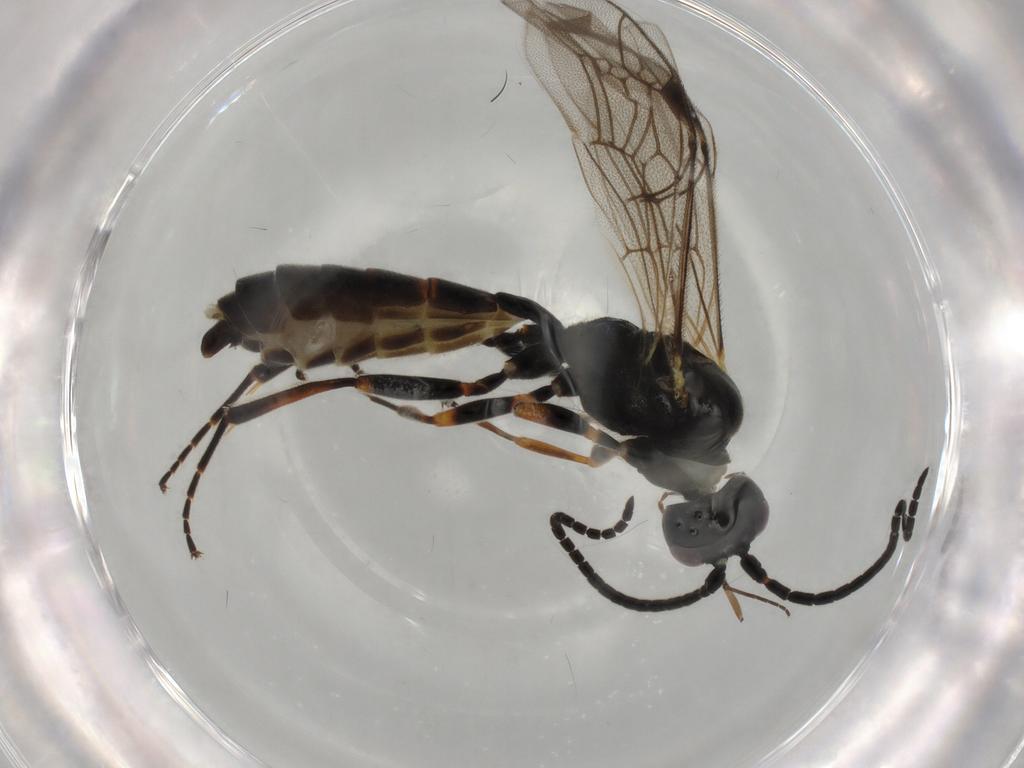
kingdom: Animalia
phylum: Arthropoda
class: Insecta
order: Hymenoptera
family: Ichneumonidae
